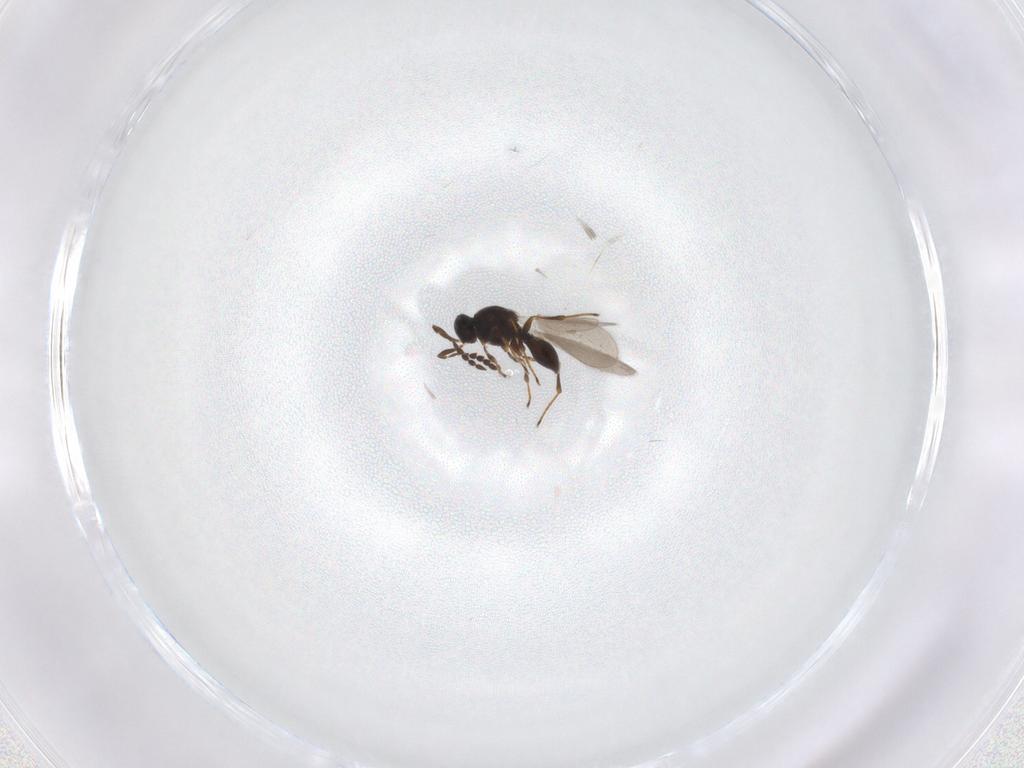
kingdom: Animalia
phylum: Arthropoda
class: Insecta
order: Hymenoptera
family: Platygastridae
